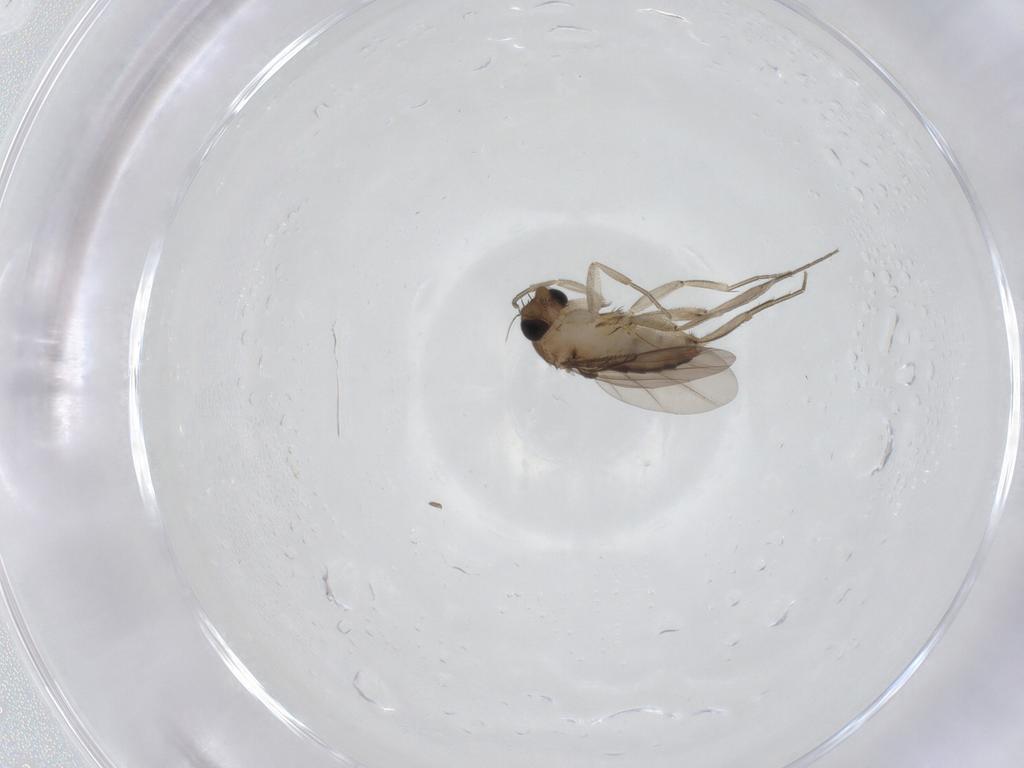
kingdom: Animalia
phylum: Arthropoda
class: Insecta
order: Diptera
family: Phoridae
